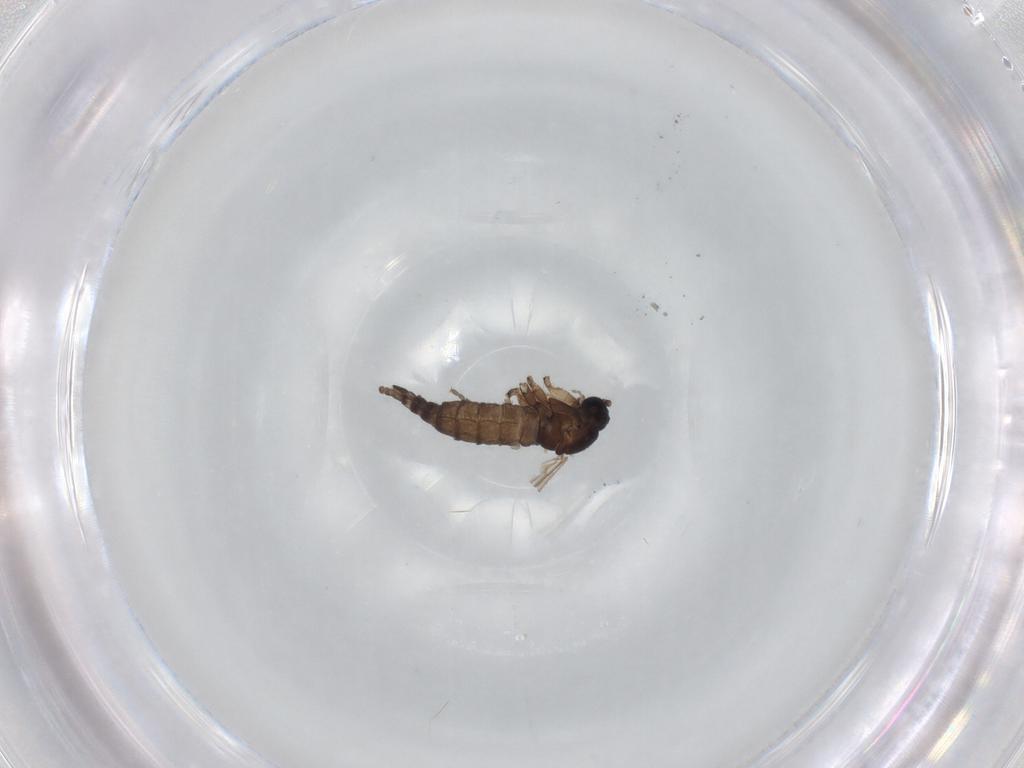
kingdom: Animalia
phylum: Arthropoda
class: Insecta
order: Diptera
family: Sciaridae
